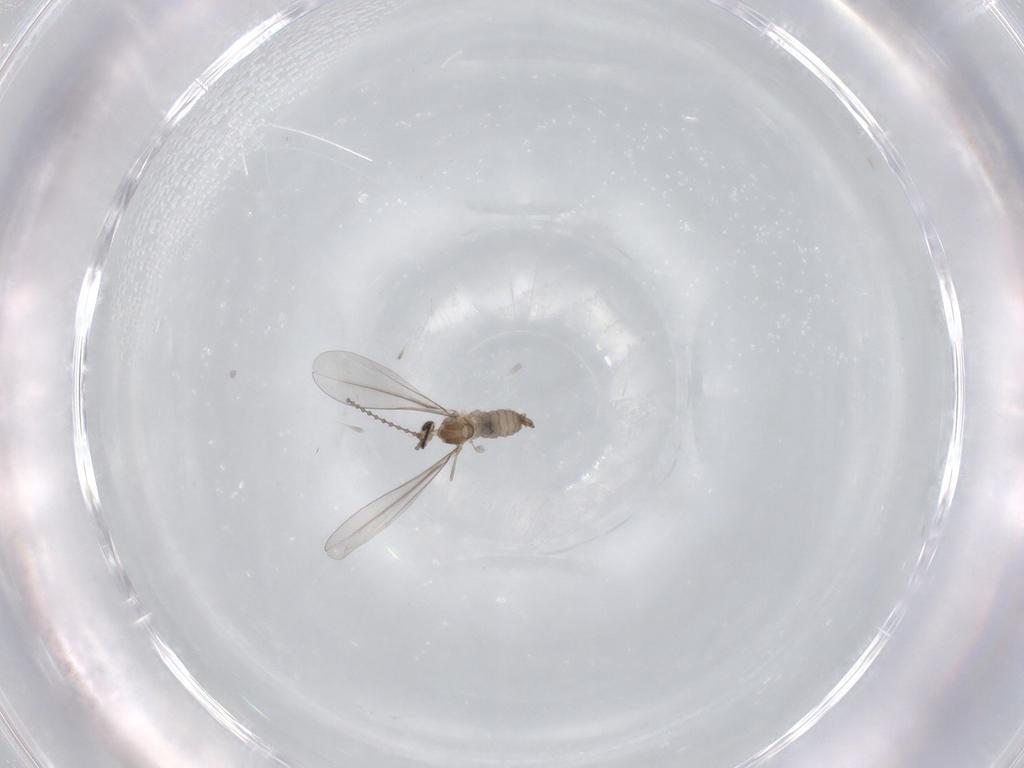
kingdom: Animalia
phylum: Arthropoda
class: Insecta
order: Diptera
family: Cecidomyiidae
